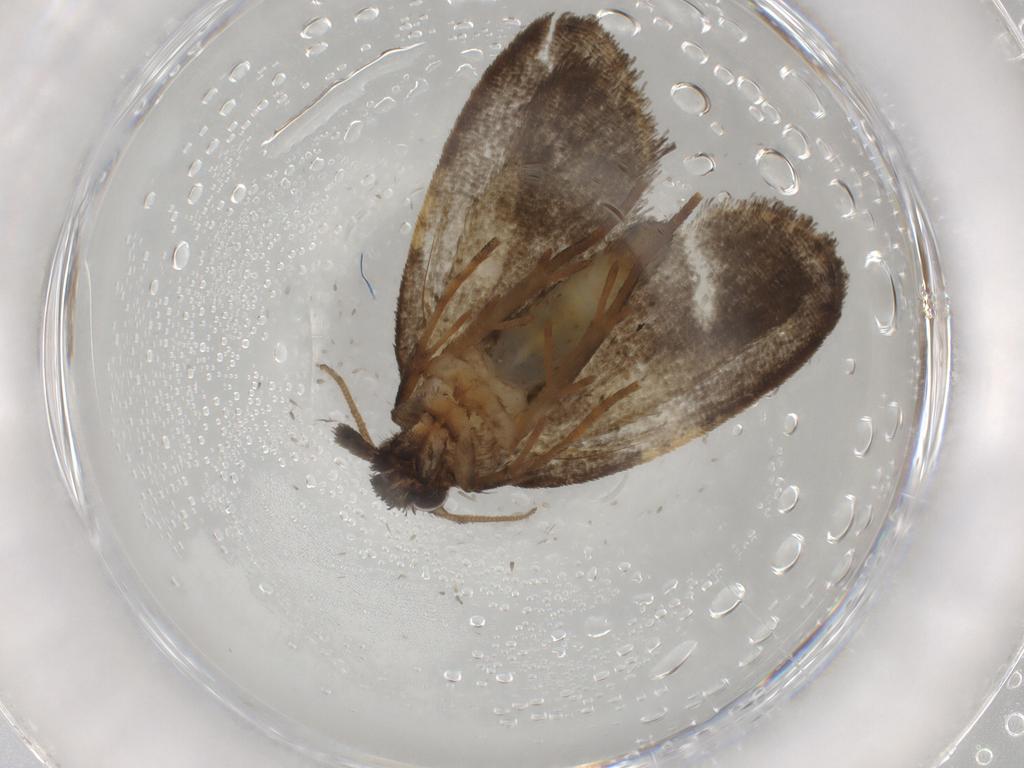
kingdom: Animalia
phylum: Arthropoda
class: Insecta
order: Lepidoptera
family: Psychidae
